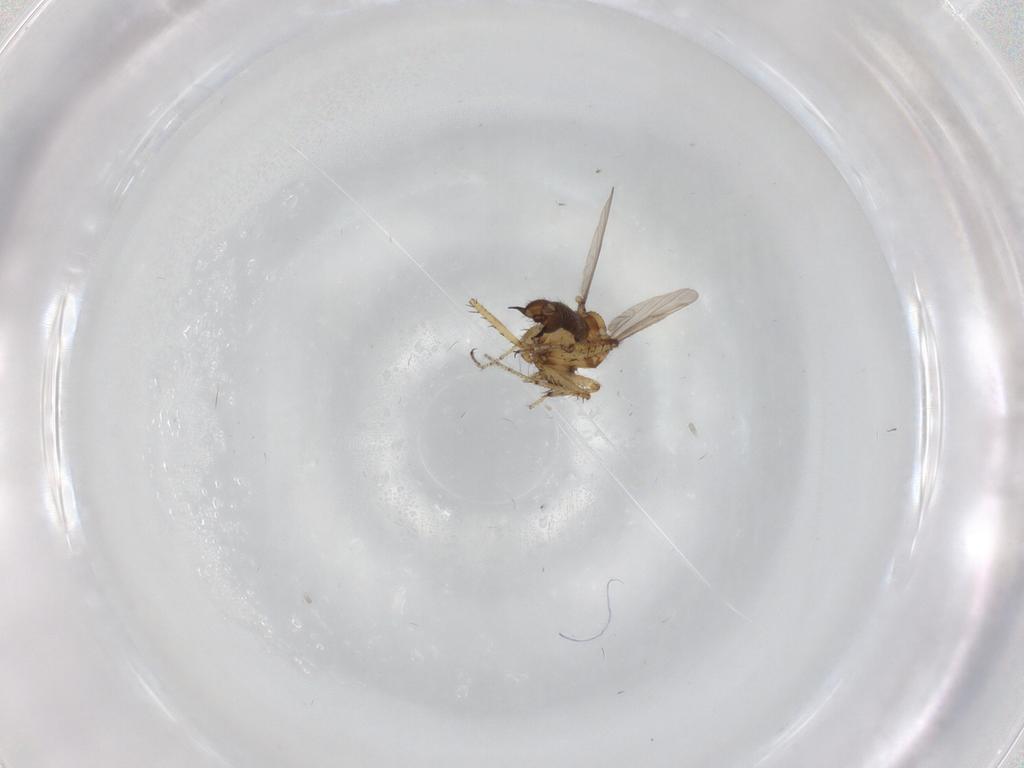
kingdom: Animalia
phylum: Arthropoda
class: Insecta
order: Diptera
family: Ceratopogonidae
